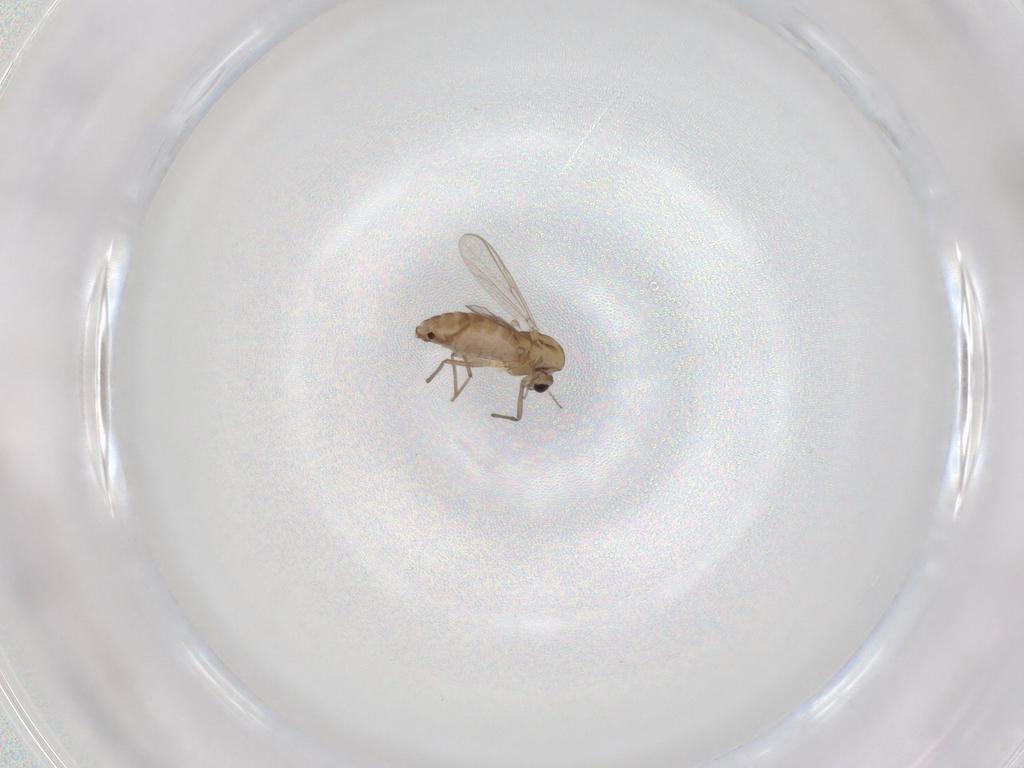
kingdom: Animalia
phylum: Arthropoda
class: Insecta
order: Diptera
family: Chironomidae
